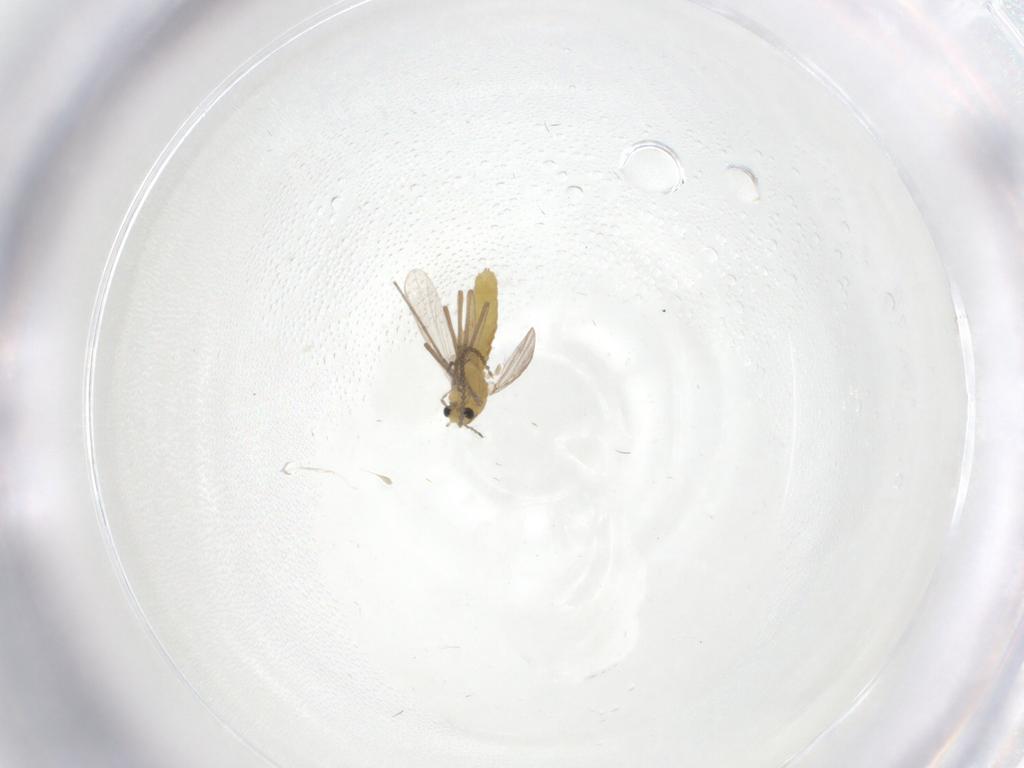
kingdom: Animalia
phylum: Arthropoda
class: Insecta
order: Diptera
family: Chironomidae
